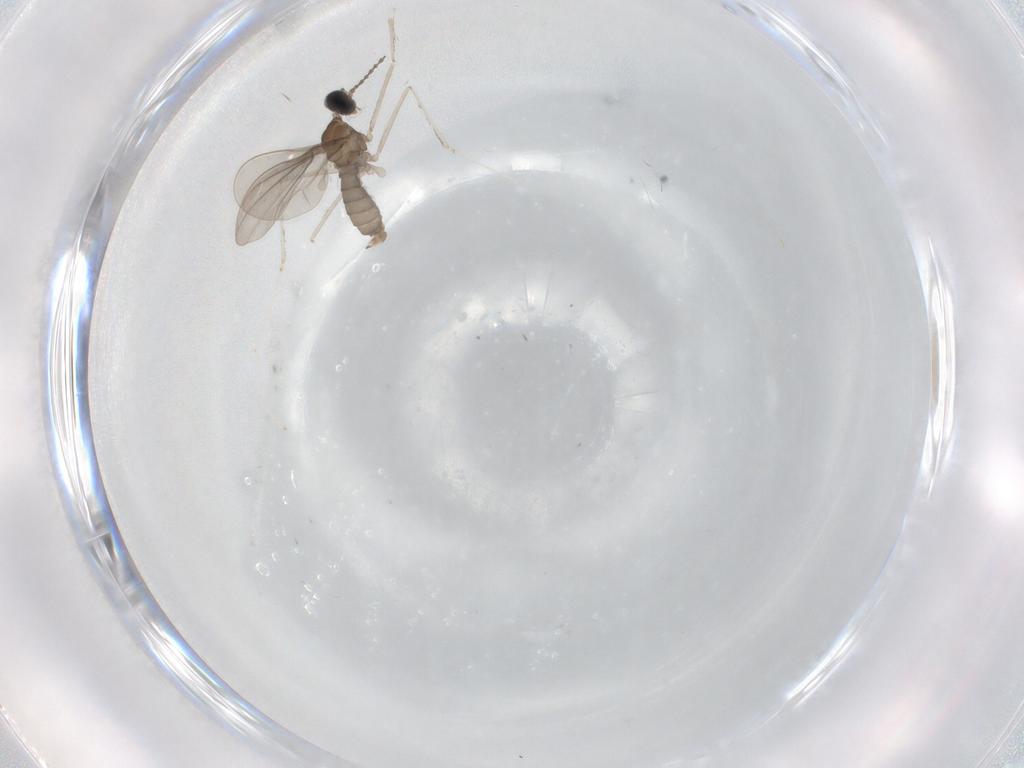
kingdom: Animalia
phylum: Arthropoda
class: Insecta
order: Diptera
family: Cecidomyiidae
